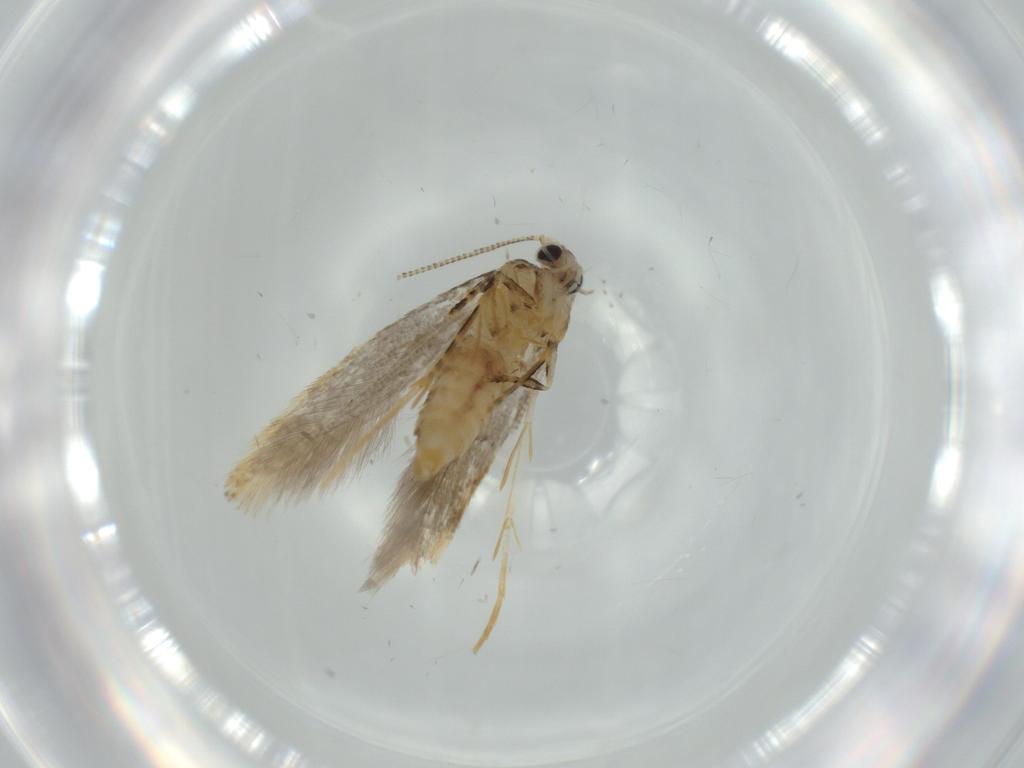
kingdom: Animalia
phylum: Arthropoda
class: Insecta
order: Lepidoptera
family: Tineidae
